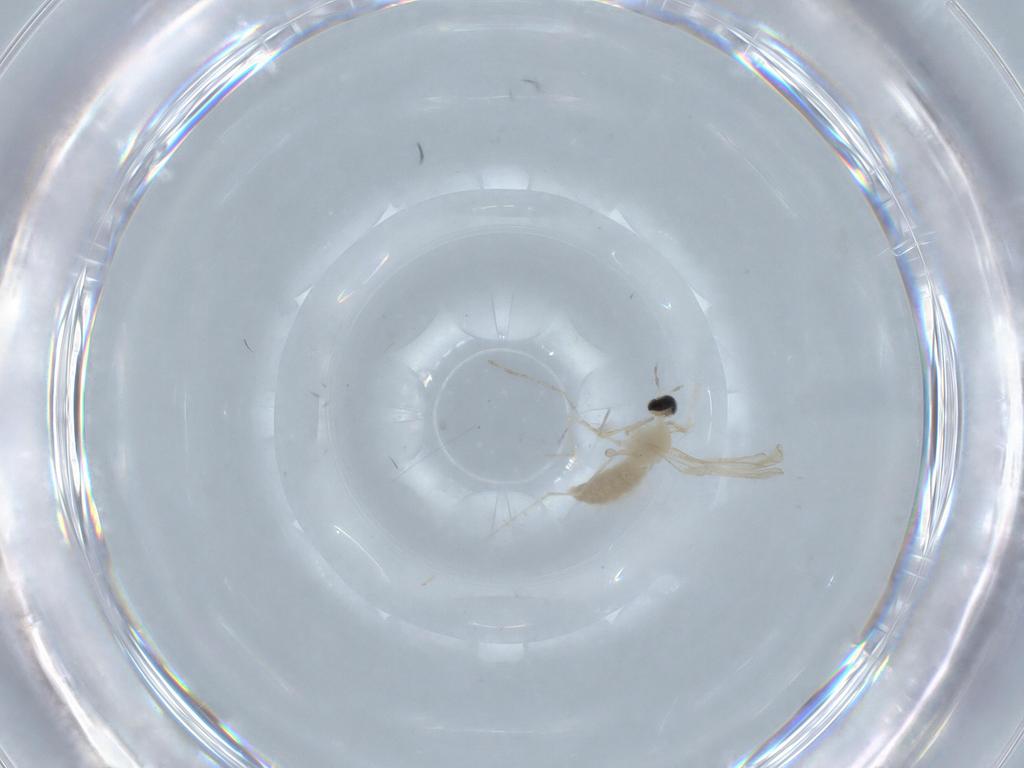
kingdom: Animalia
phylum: Arthropoda
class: Insecta
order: Diptera
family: Cecidomyiidae
